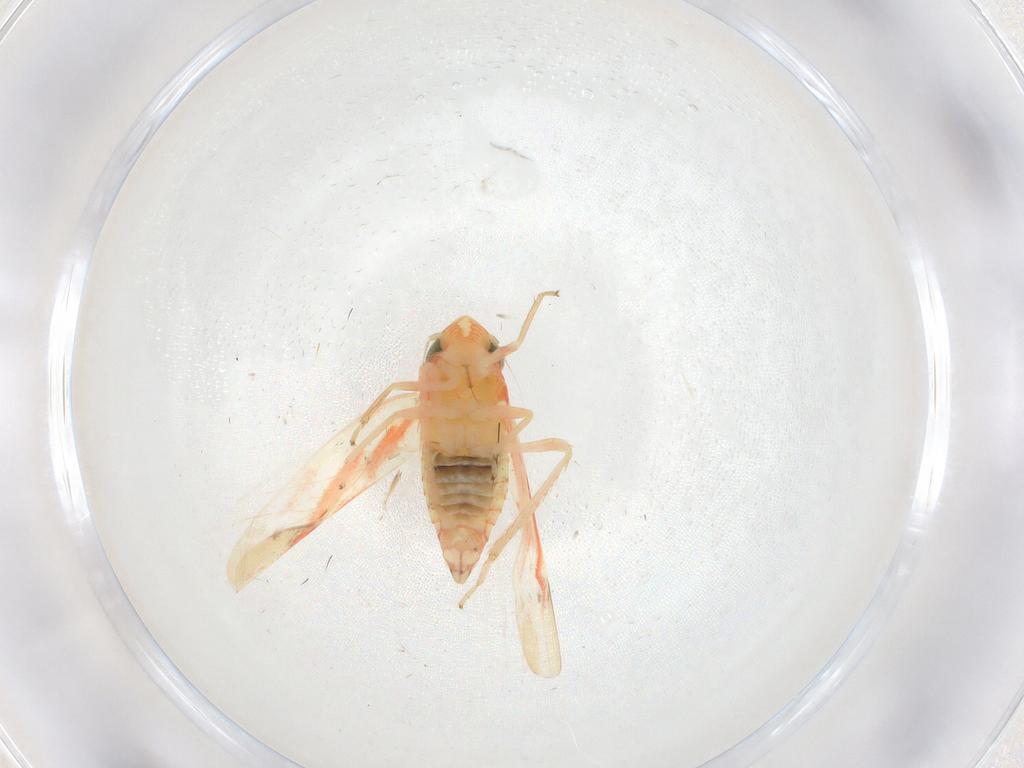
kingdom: Animalia
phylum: Arthropoda
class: Insecta
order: Hemiptera
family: Cicadellidae
